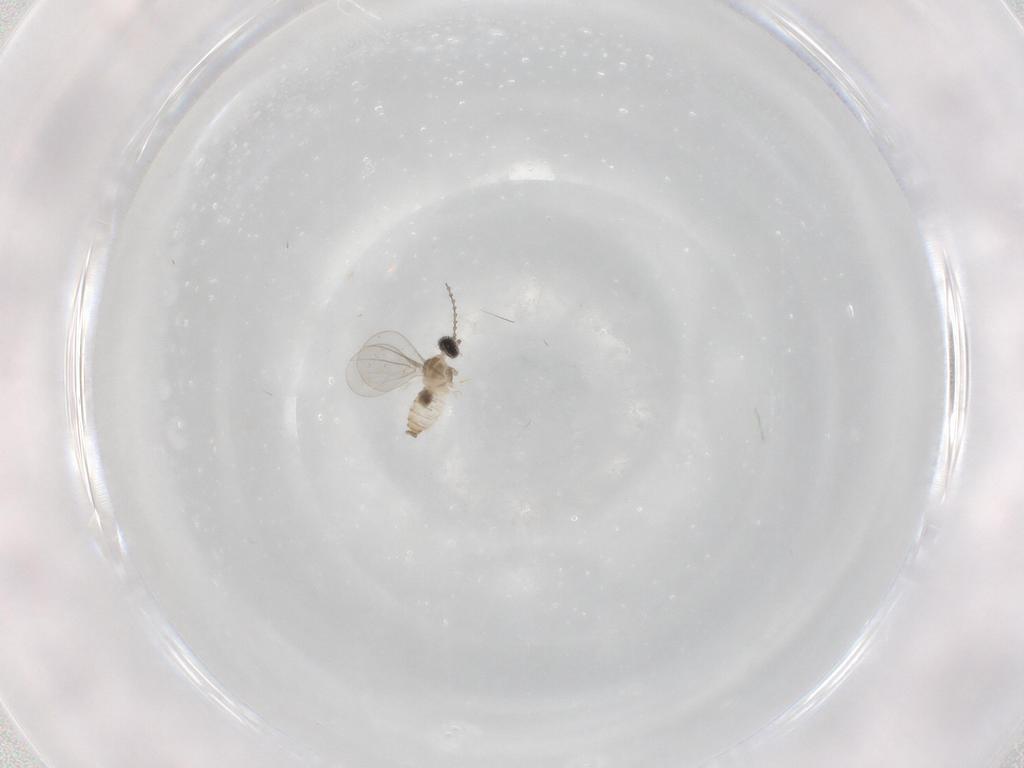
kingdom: Animalia
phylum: Arthropoda
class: Insecta
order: Diptera
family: Cecidomyiidae
